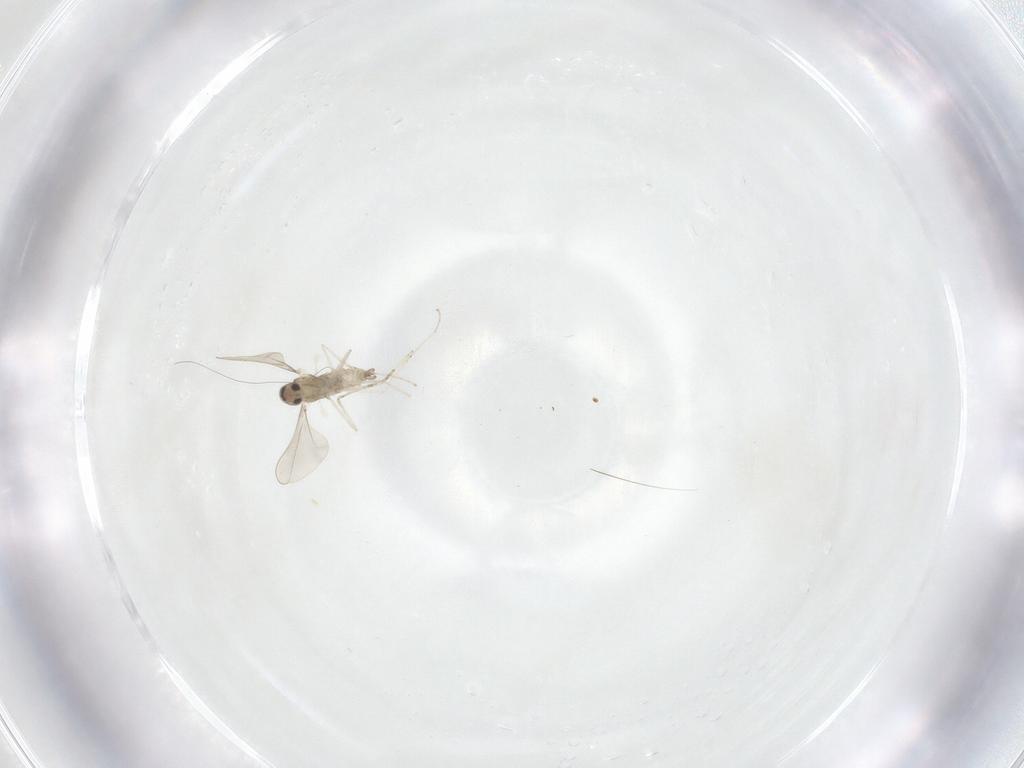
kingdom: Animalia
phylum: Arthropoda
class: Insecta
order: Diptera
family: Cecidomyiidae
